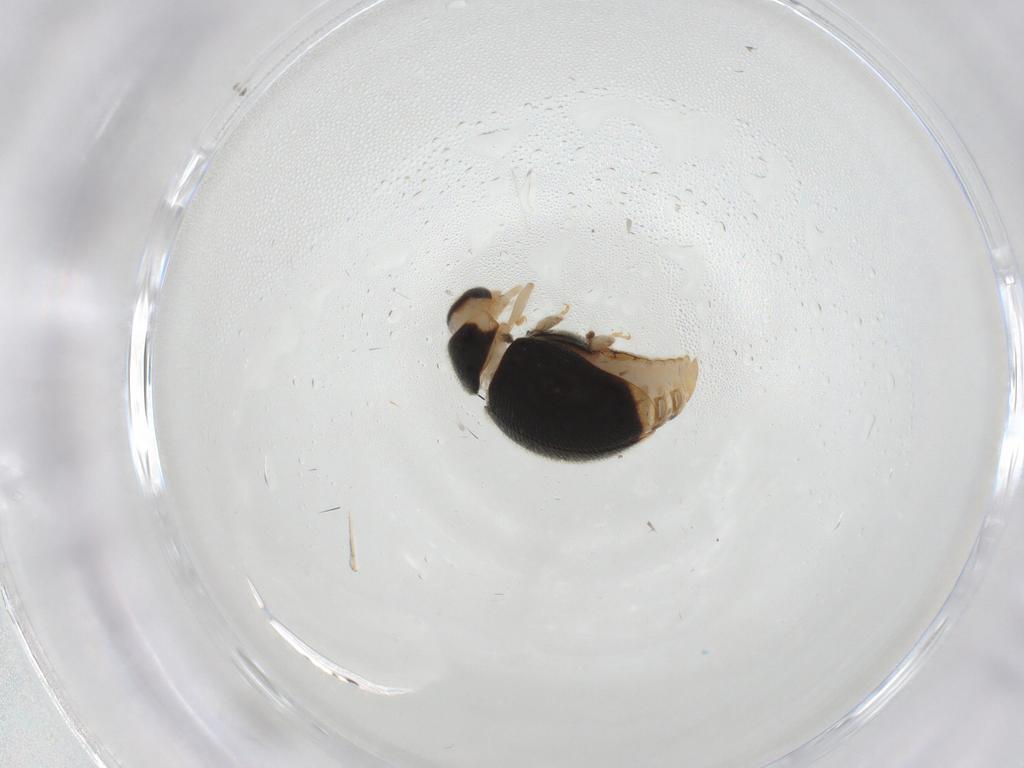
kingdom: Animalia
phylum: Arthropoda
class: Insecta
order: Coleoptera
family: Coccinellidae
